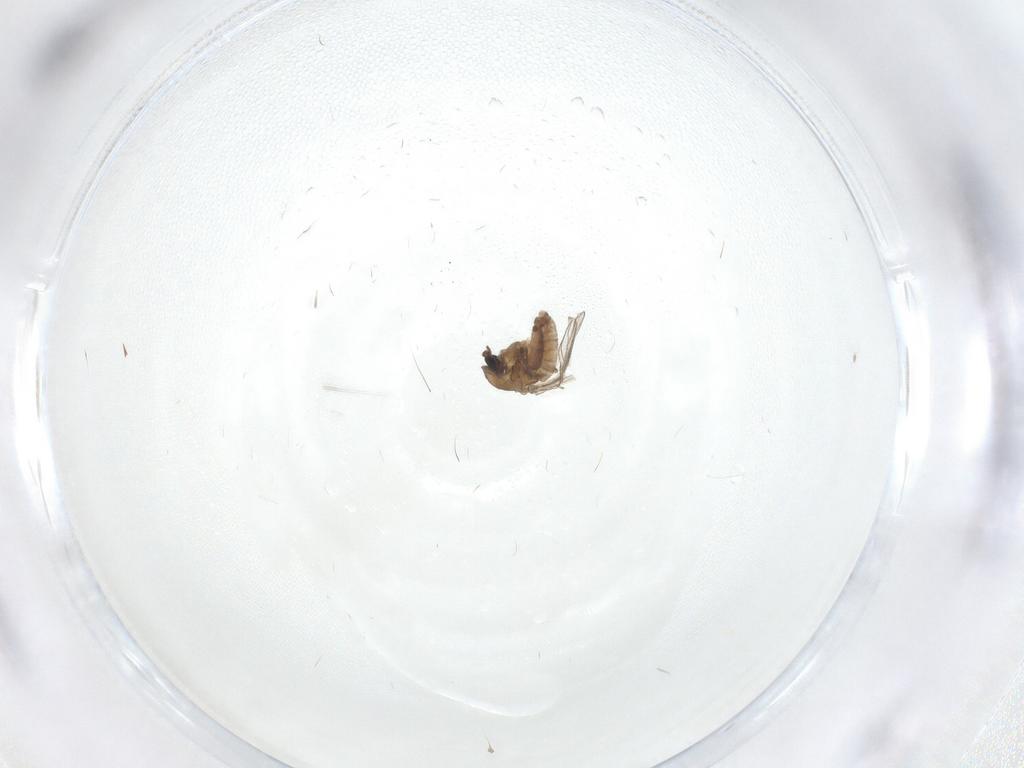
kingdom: Animalia
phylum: Arthropoda
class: Insecta
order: Diptera
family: Chironomidae
